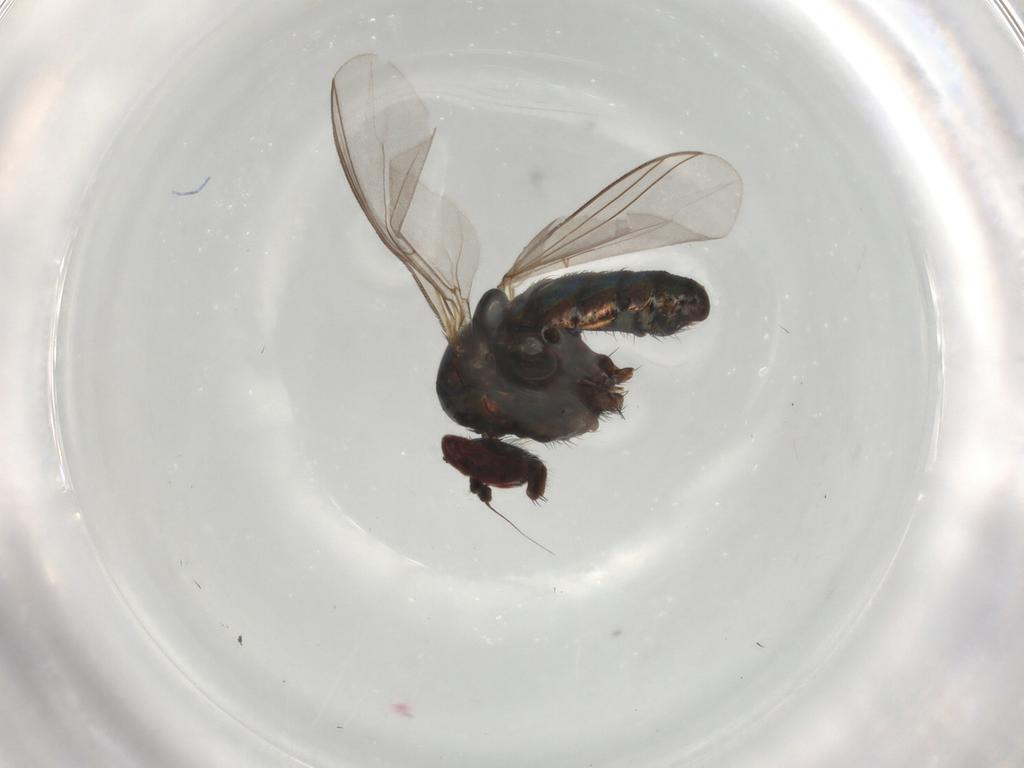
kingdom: Animalia
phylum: Arthropoda
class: Insecta
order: Diptera
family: Dolichopodidae
